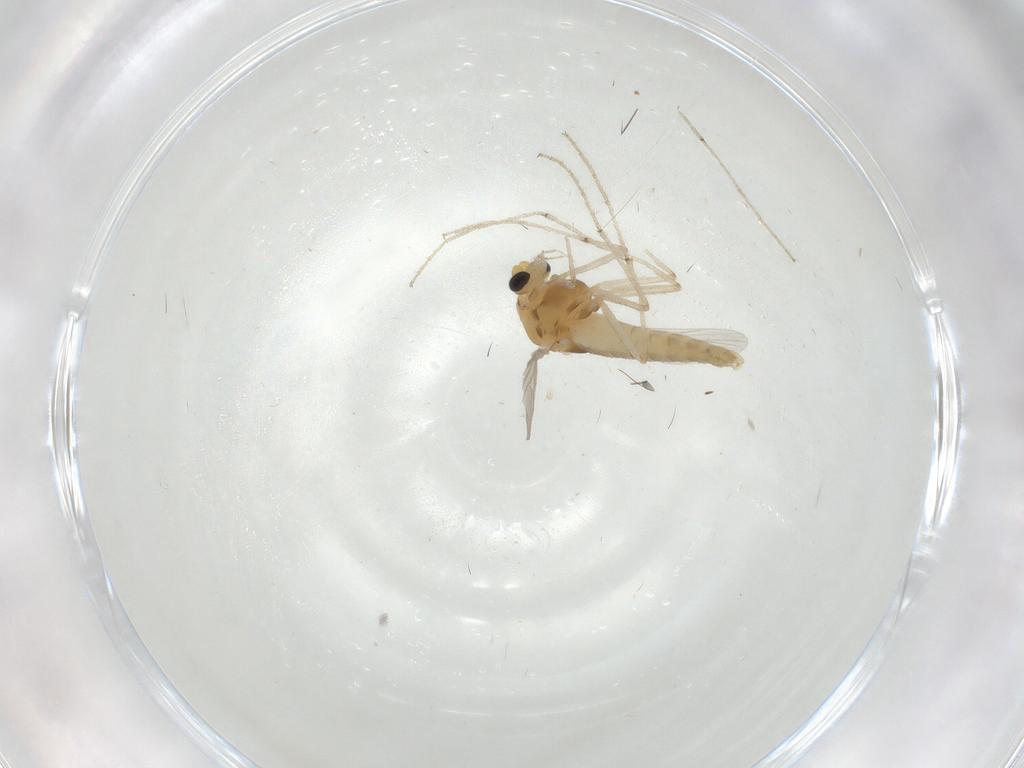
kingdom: Animalia
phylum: Arthropoda
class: Insecta
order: Diptera
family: Chironomidae
